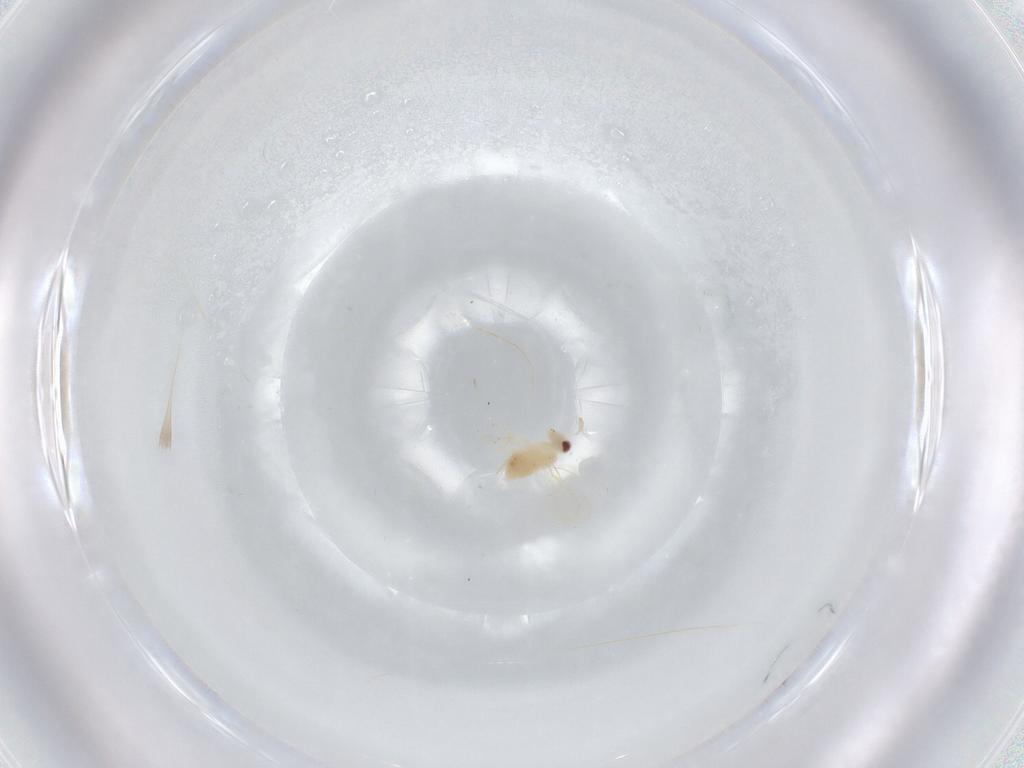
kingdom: Animalia
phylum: Arthropoda
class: Insecta
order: Hymenoptera
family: Aphelinidae
